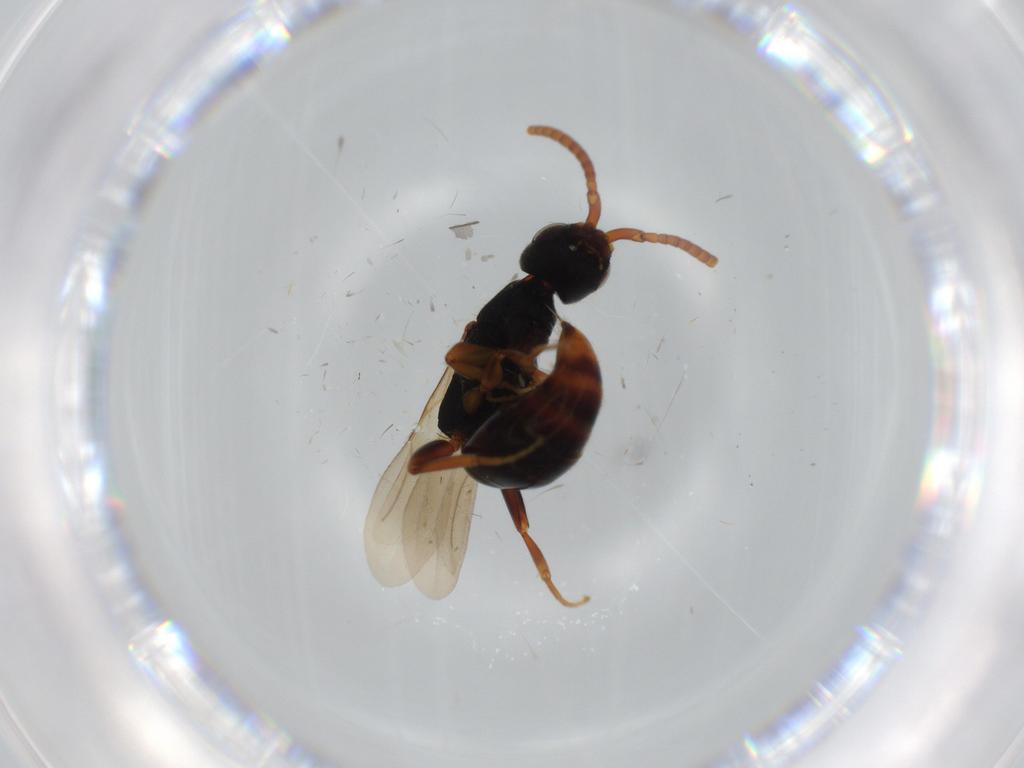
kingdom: Animalia
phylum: Arthropoda
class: Insecta
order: Hymenoptera
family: Bethylidae
